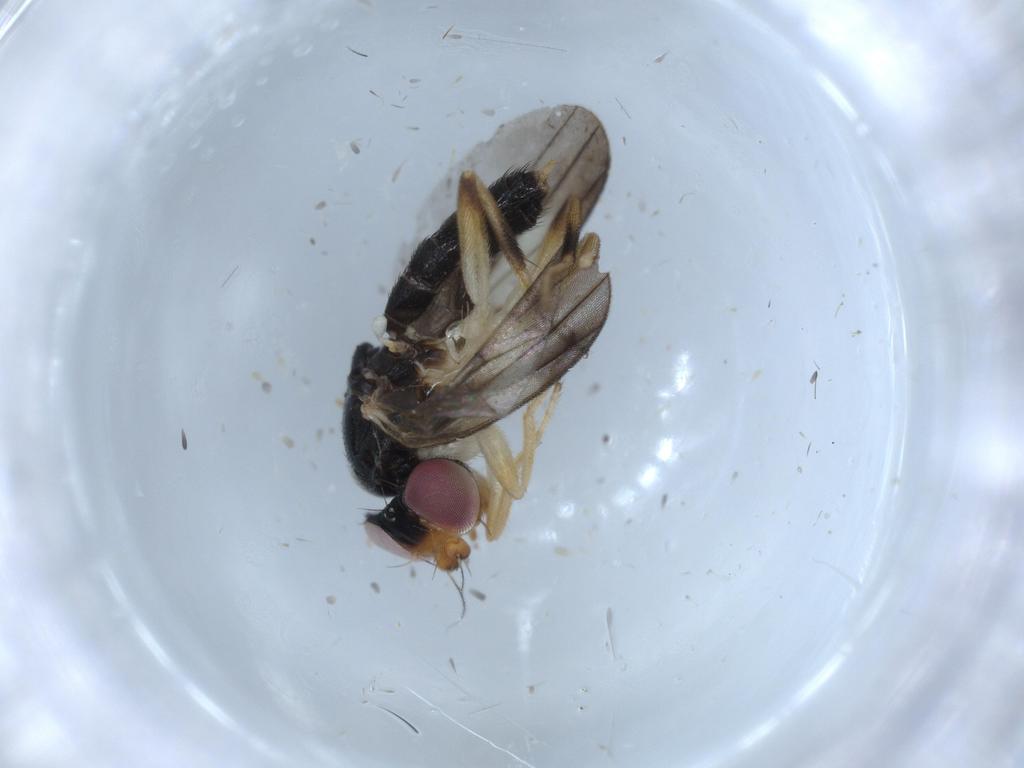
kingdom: Animalia
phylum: Arthropoda
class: Insecta
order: Diptera
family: Clusiidae
